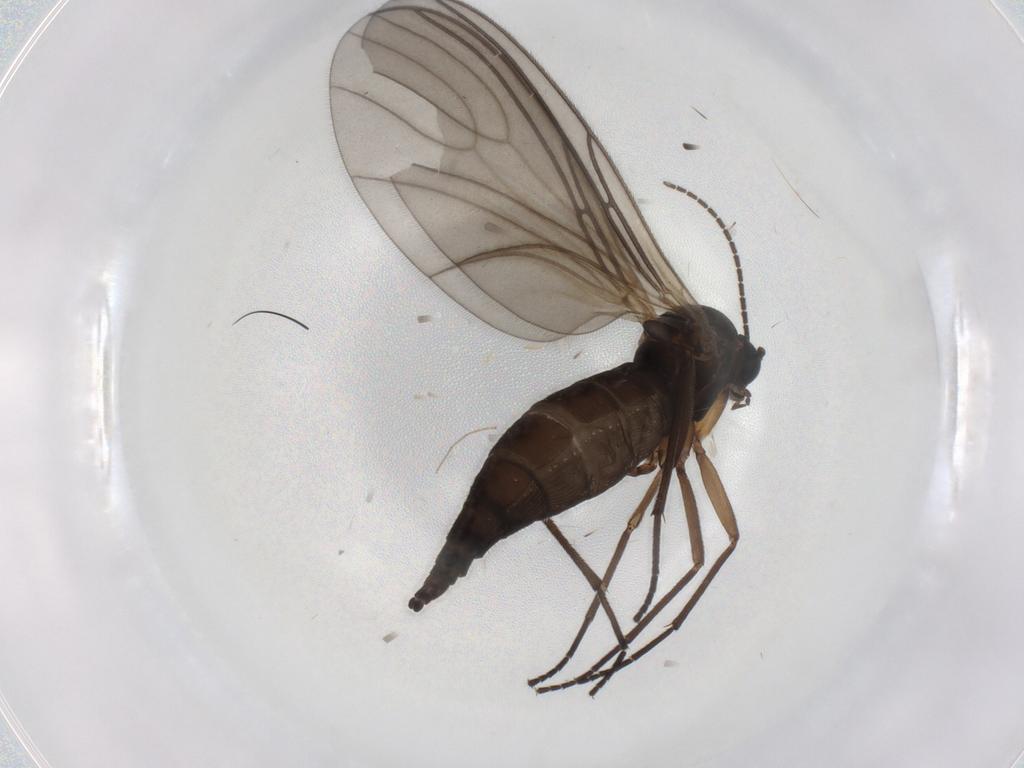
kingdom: Animalia
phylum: Arthropoda
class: Insecta
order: Diptera
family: Sciaridae
